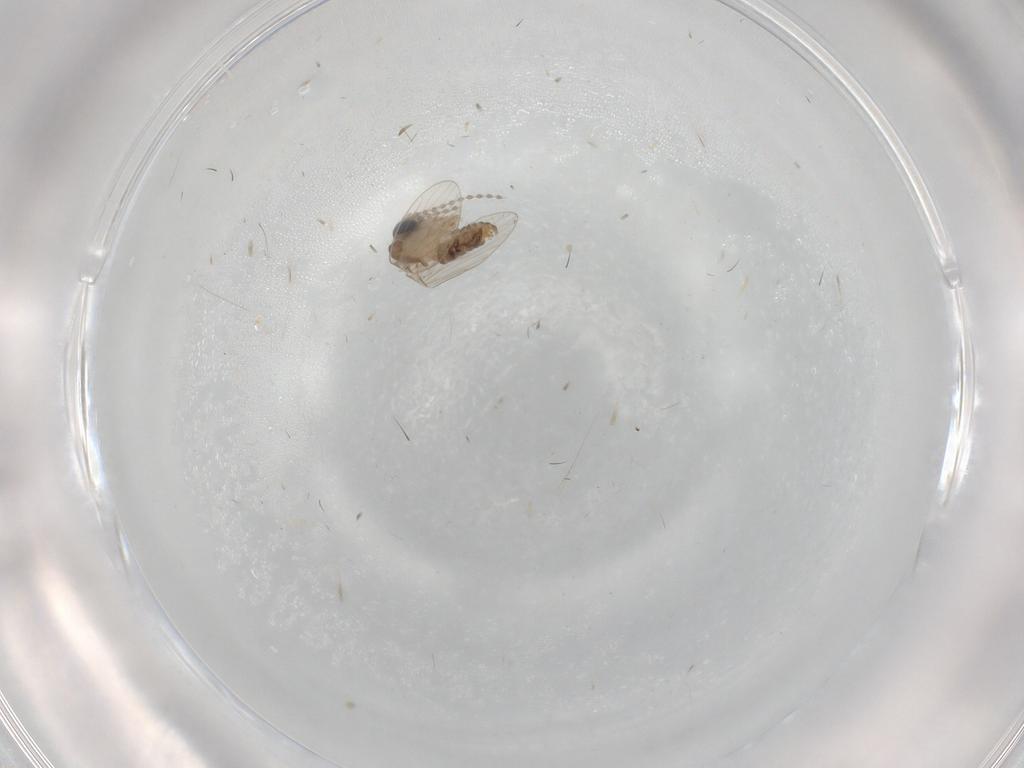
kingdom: Animalia
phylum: Arthropoda
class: Insecta
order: Diptera
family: Psychodidae
